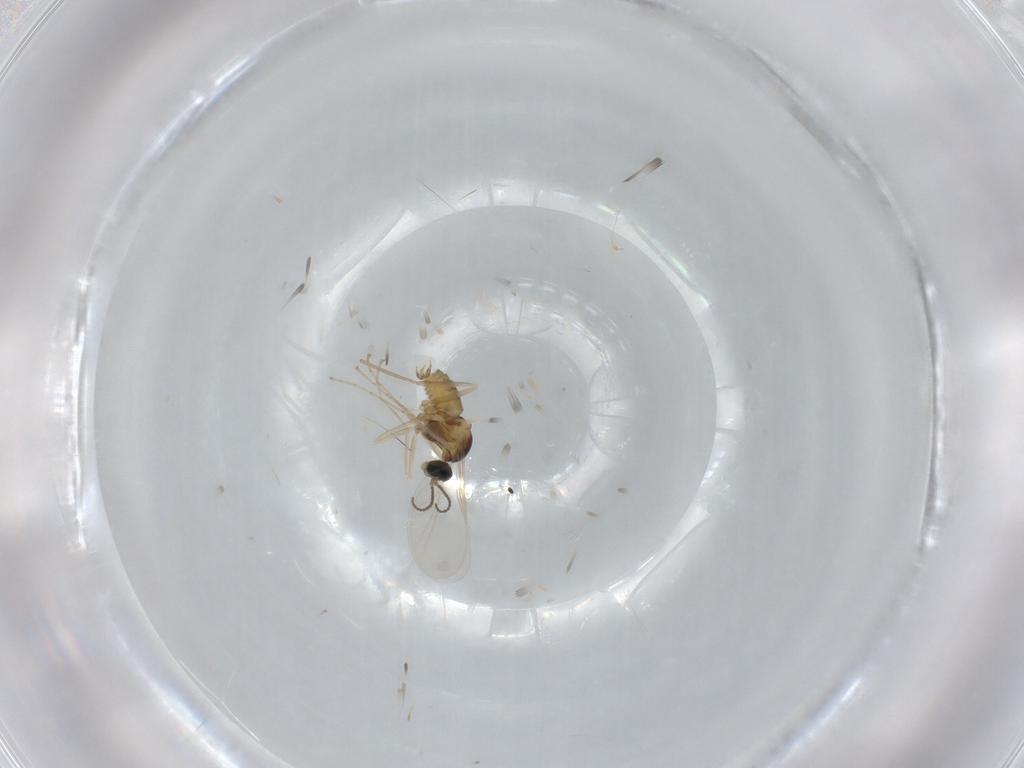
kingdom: Animalia
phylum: Arthropoda
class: Insecta
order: Diptera
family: Cecidomyiidae
